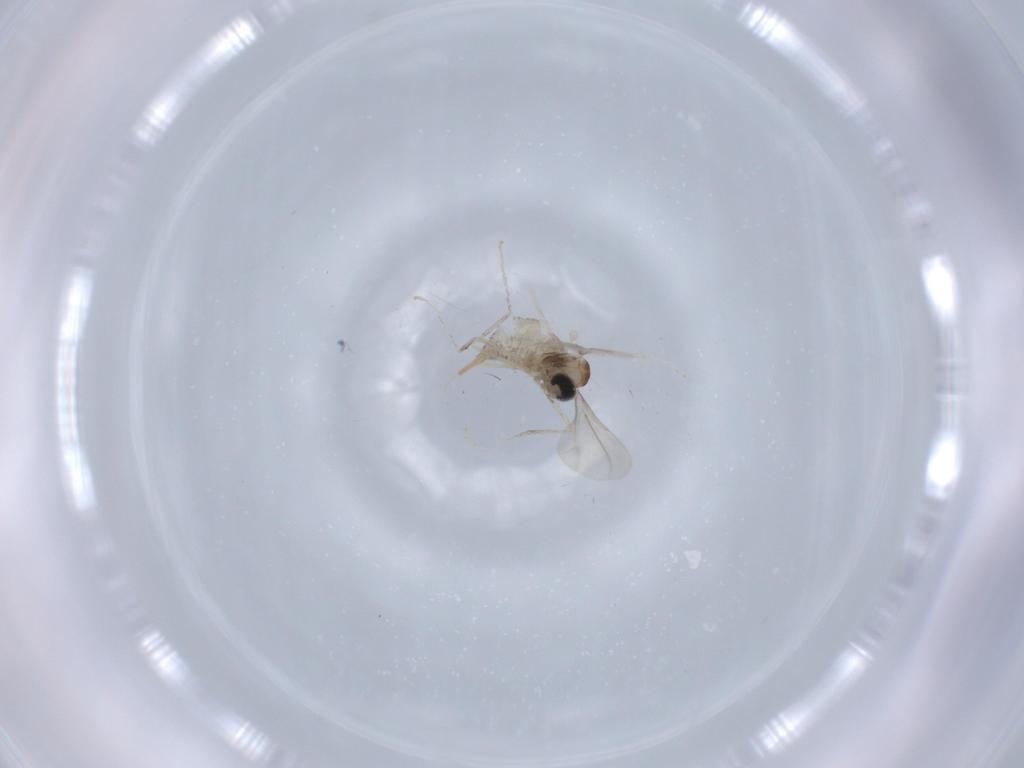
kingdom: Animalia
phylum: Arthropoda
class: Insecta
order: Diptera
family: Cecidomyiidae
